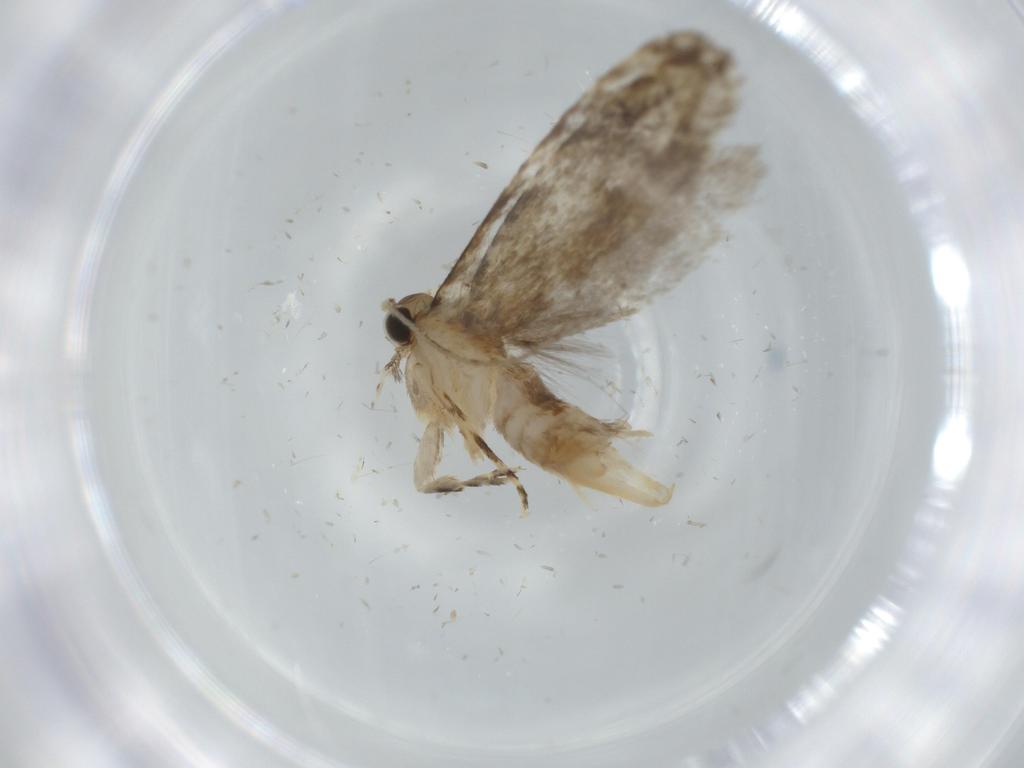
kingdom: Animalia
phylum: Arthropoda
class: Insecta
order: Lepidoptera
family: Tineidae
